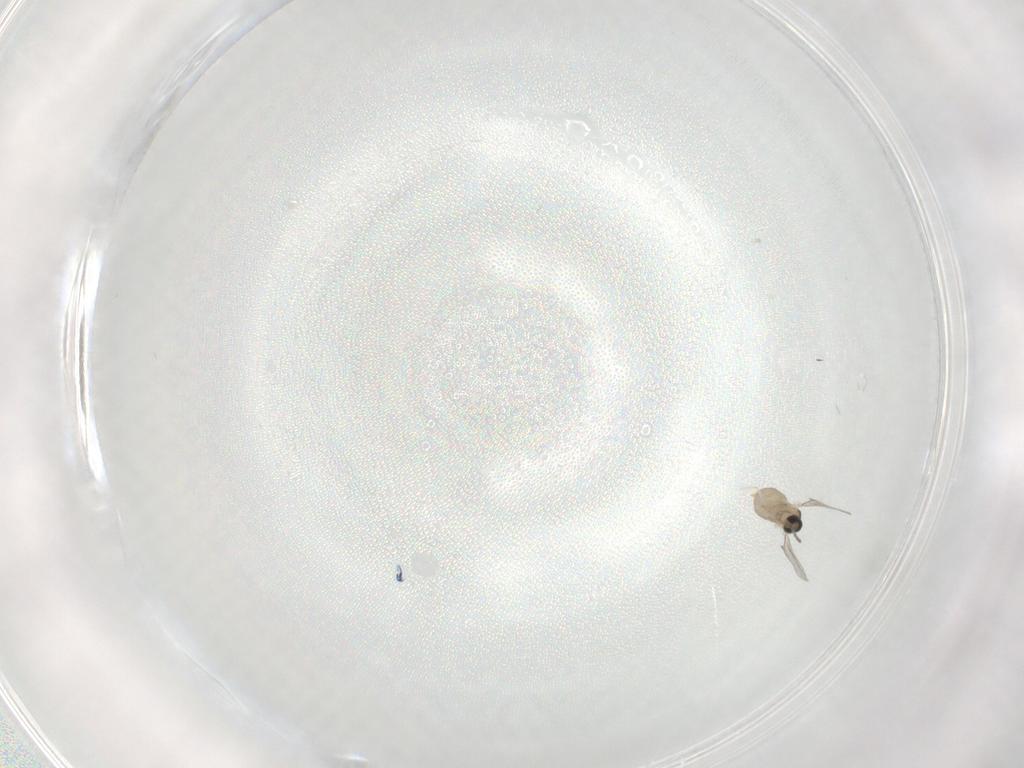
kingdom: Animalia
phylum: Arthropoda
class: Insecta
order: Diptera
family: Cecidomyiidae
